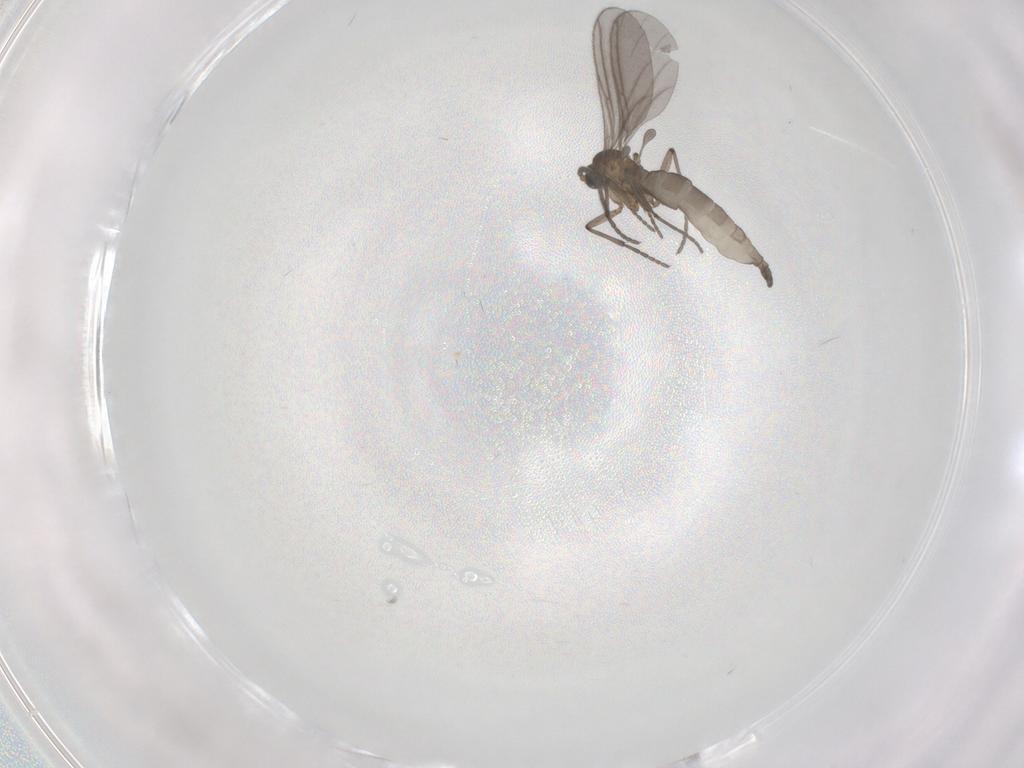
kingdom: Animalia
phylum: Arthropoda
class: Insecta
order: Diptera
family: Sciaridae
